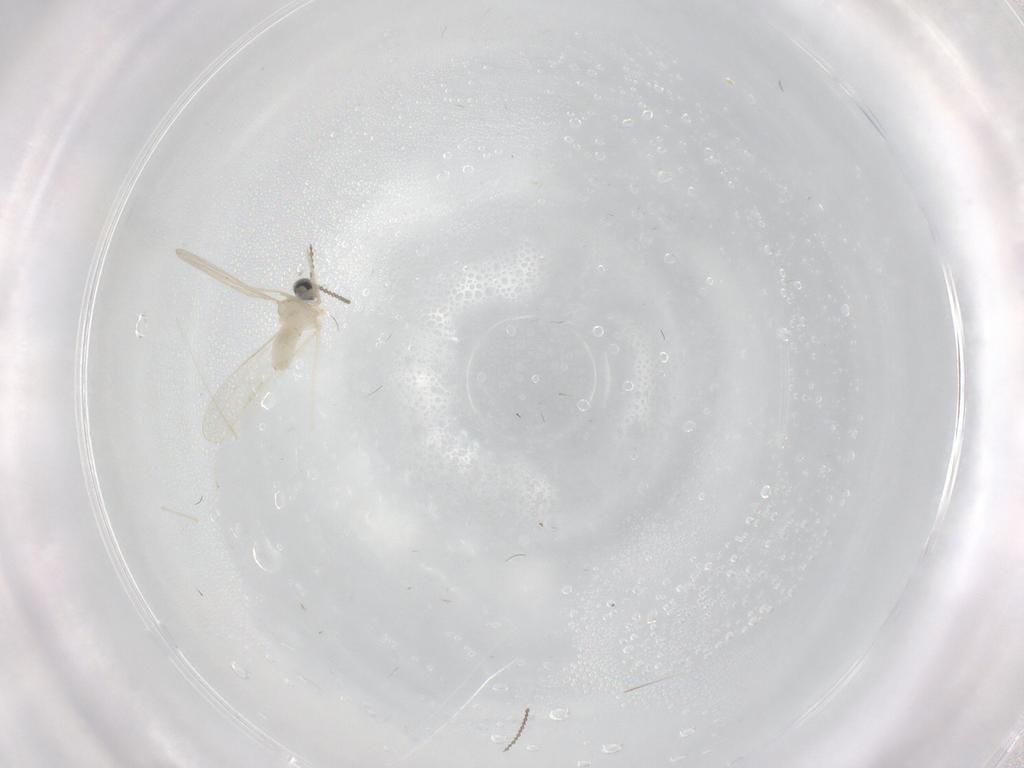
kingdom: Animalia
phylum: Arthropoda
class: Insecta
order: Diptera
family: Cecidomyiidae
